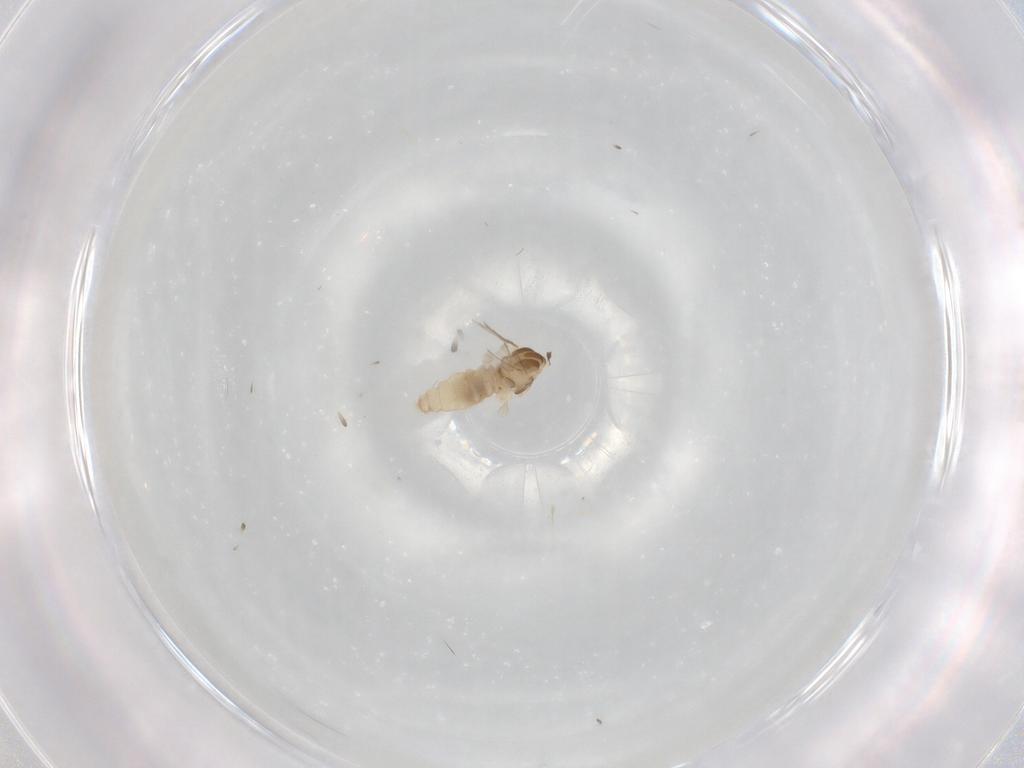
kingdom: Animalia
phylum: Arthropoda
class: Insecta
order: Diptera
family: Cecidomyiidae
